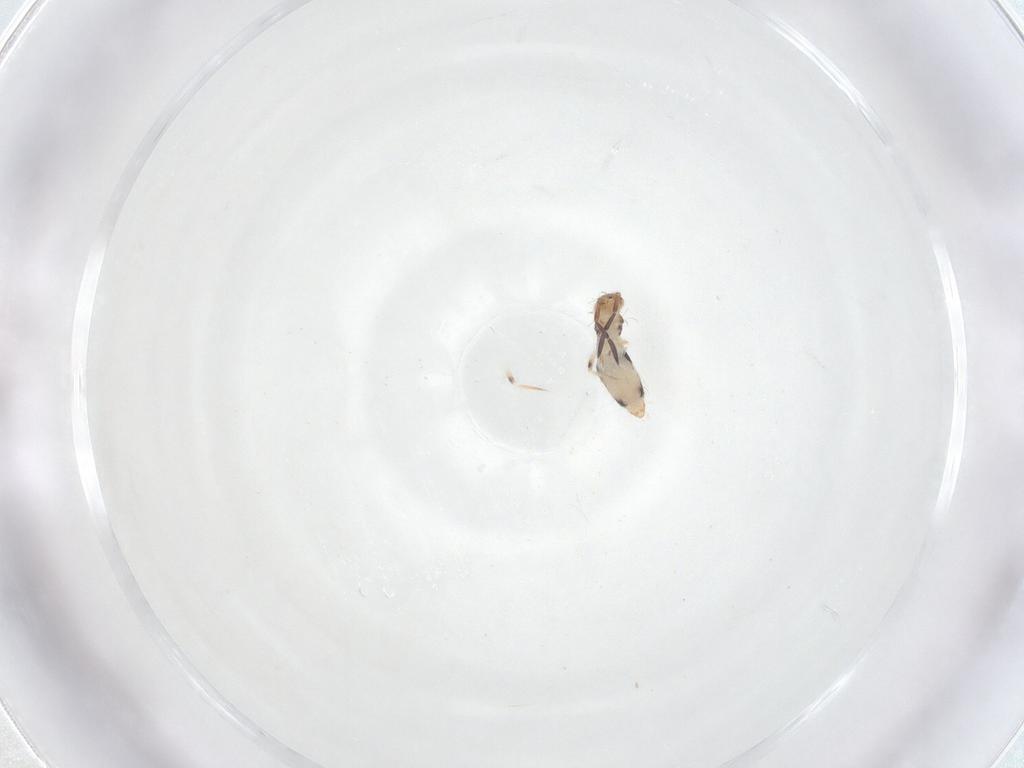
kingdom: Animalia
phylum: Arthropoda
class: Collembola
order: Entomobryomorpha
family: Entomobryidae
